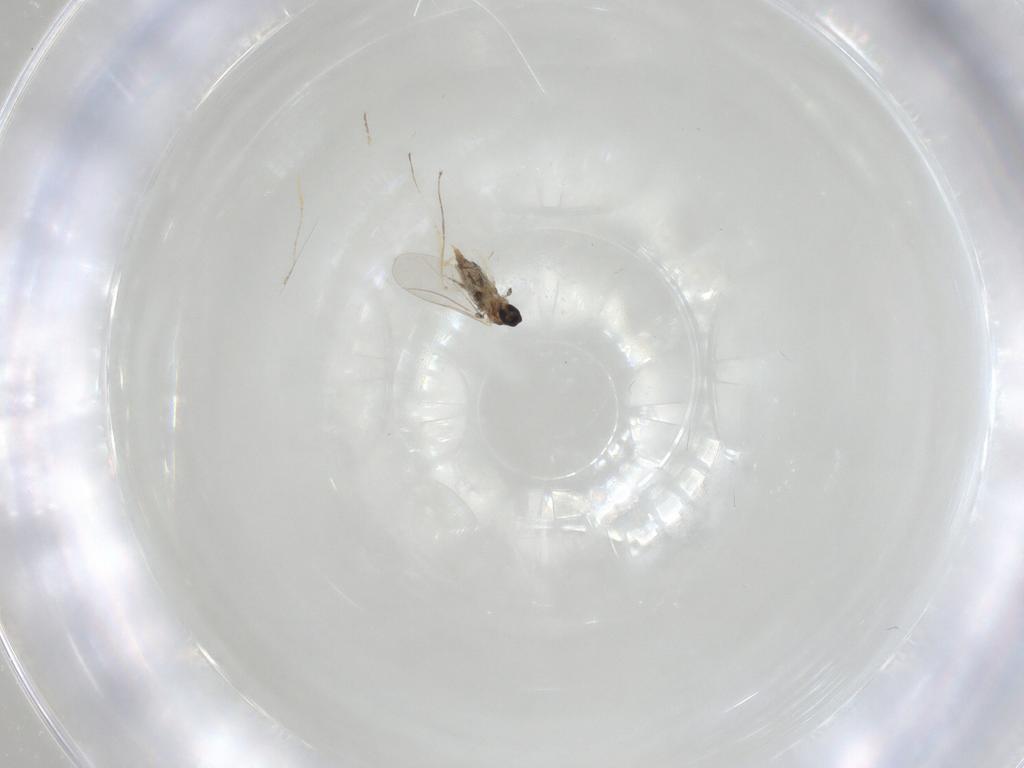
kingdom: Animalia
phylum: Arthropoda
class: Insecta
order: Diptera
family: Cecidomyiidae
